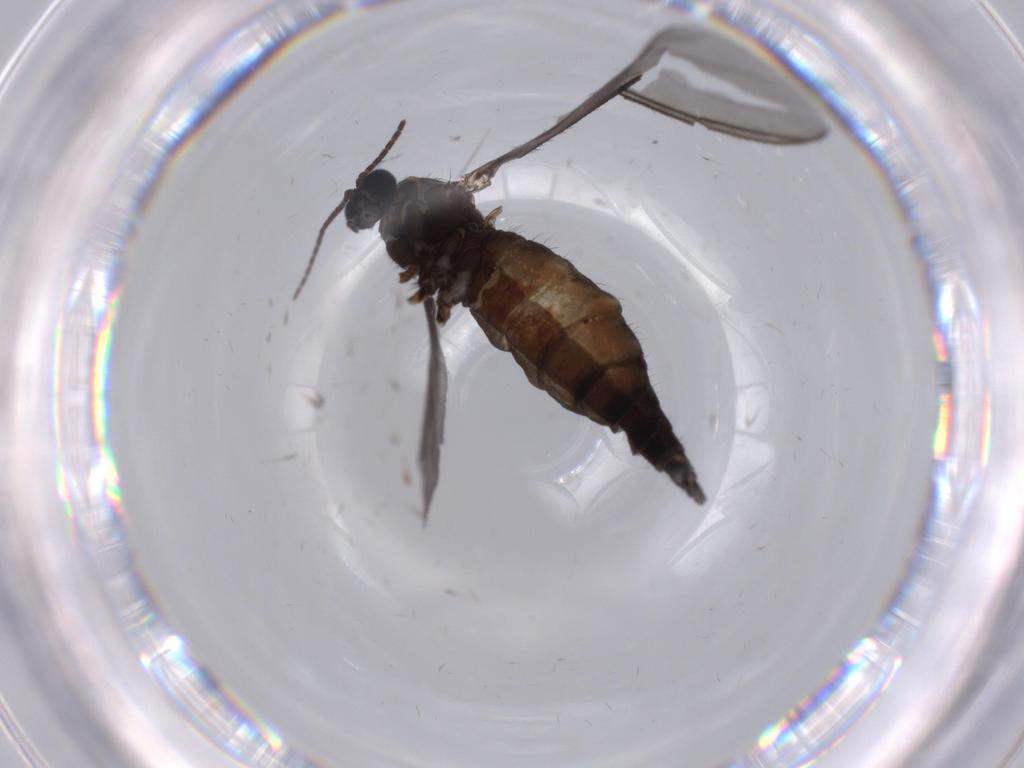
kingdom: Animalia
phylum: Arthropoda
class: Insecta
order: Diptera
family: Sciaridae
